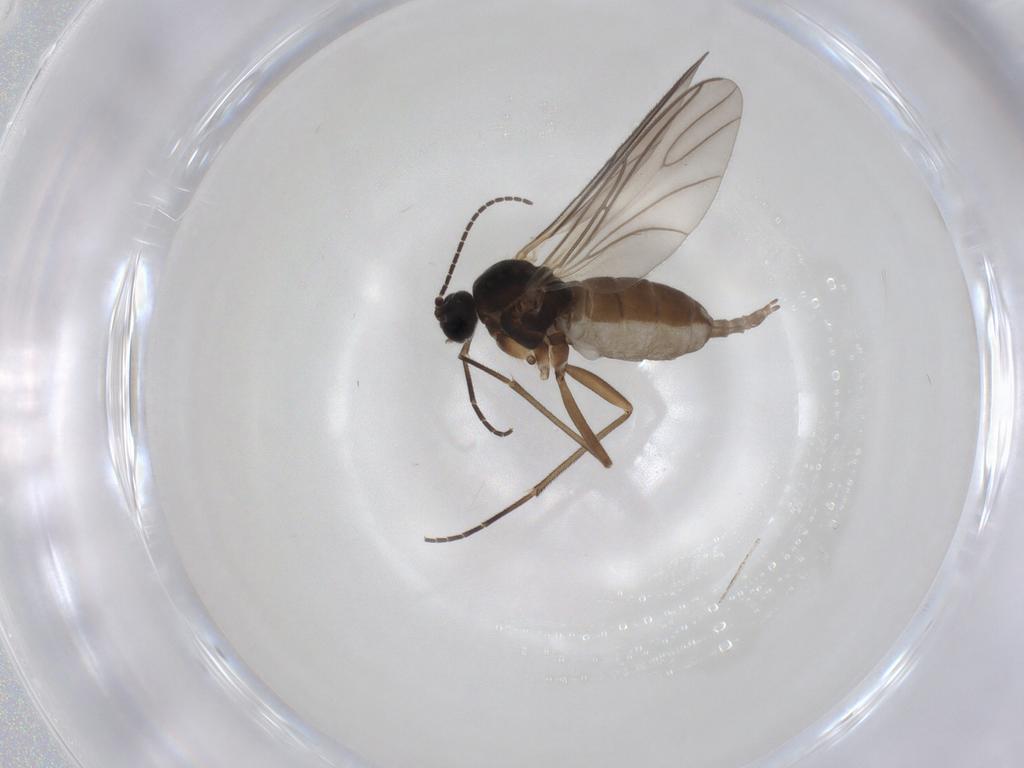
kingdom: Animalia
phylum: Arthropoda
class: Insecta
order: Diptera
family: Sciaridae
